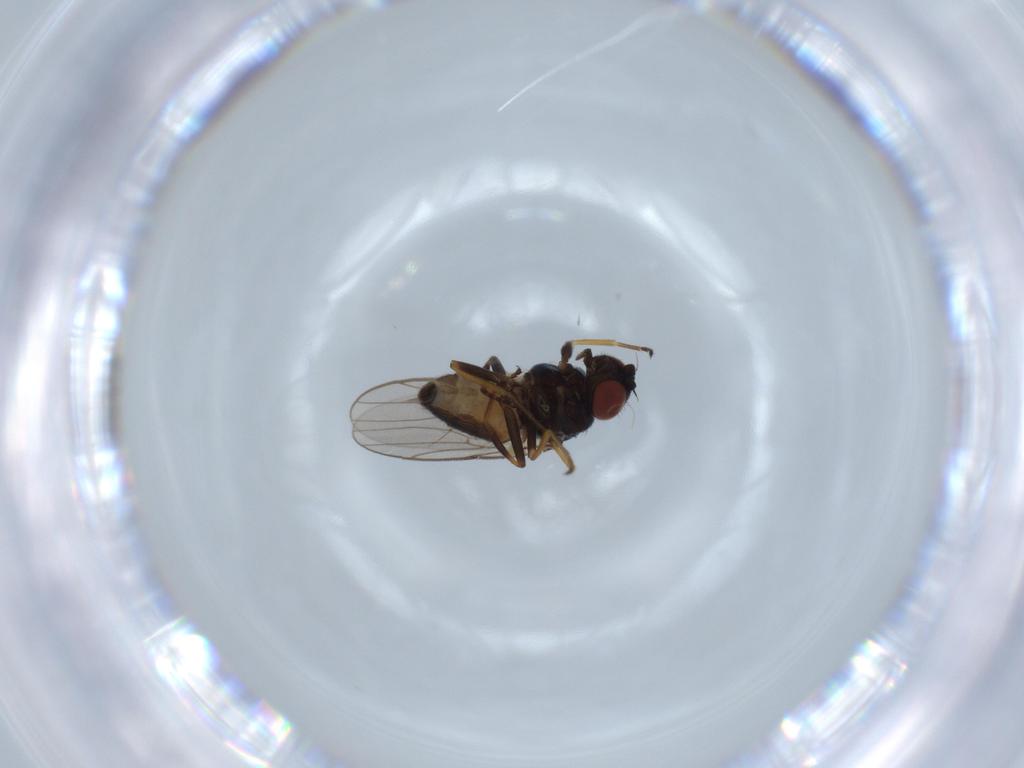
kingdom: Animalia
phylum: Arthropoda
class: Insecta
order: Diptera
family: Chloropidae
